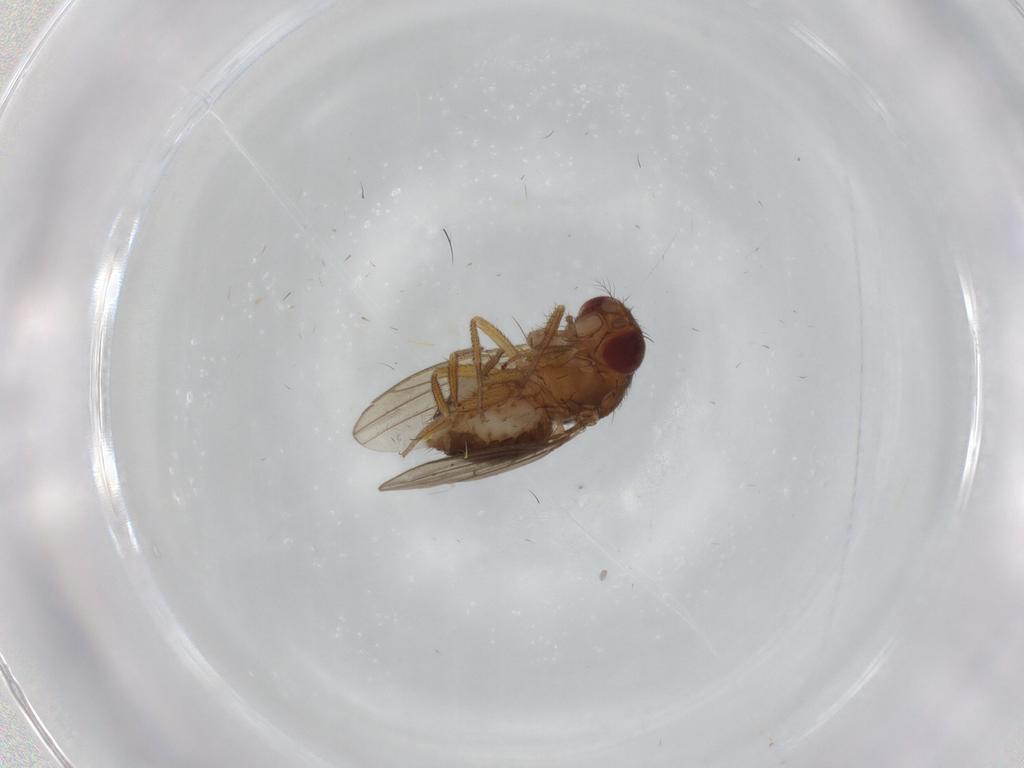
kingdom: Animalia
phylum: Arthropoda
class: Insecta
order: Diptera
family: Drosophilidae
